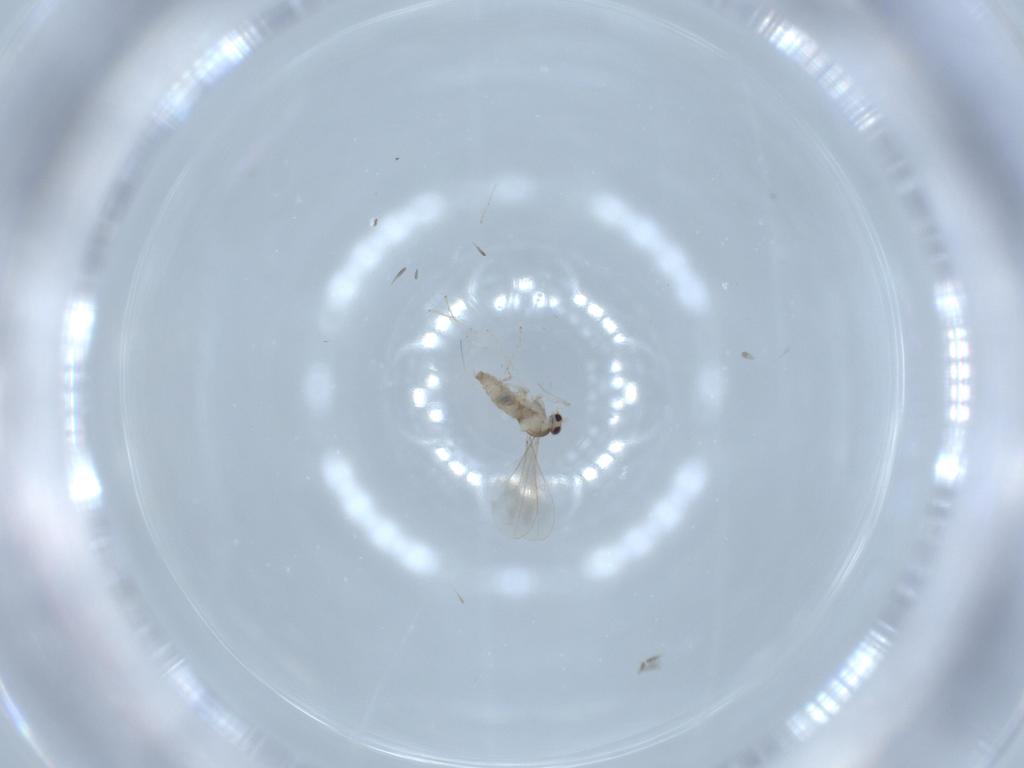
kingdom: Animalia
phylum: Arthropoda
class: Insecta
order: Diptera
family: Cecidomyiidae
